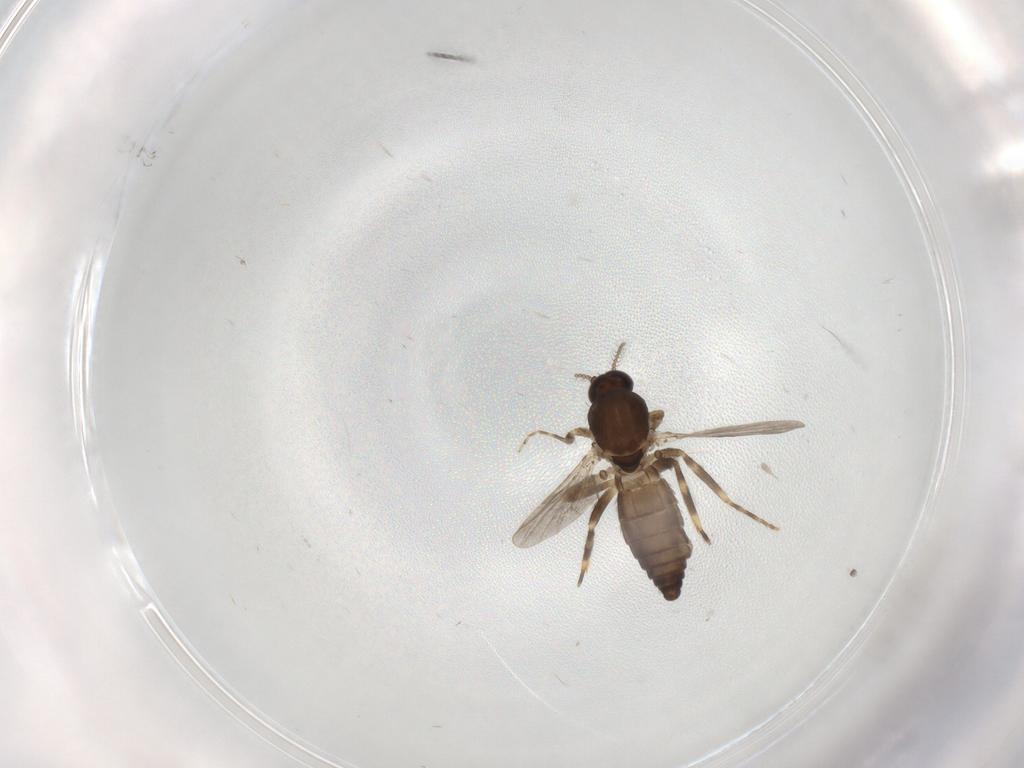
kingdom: Animalia
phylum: Arthropoda
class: Insecta
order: Diptera
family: Ceratopogonidae
